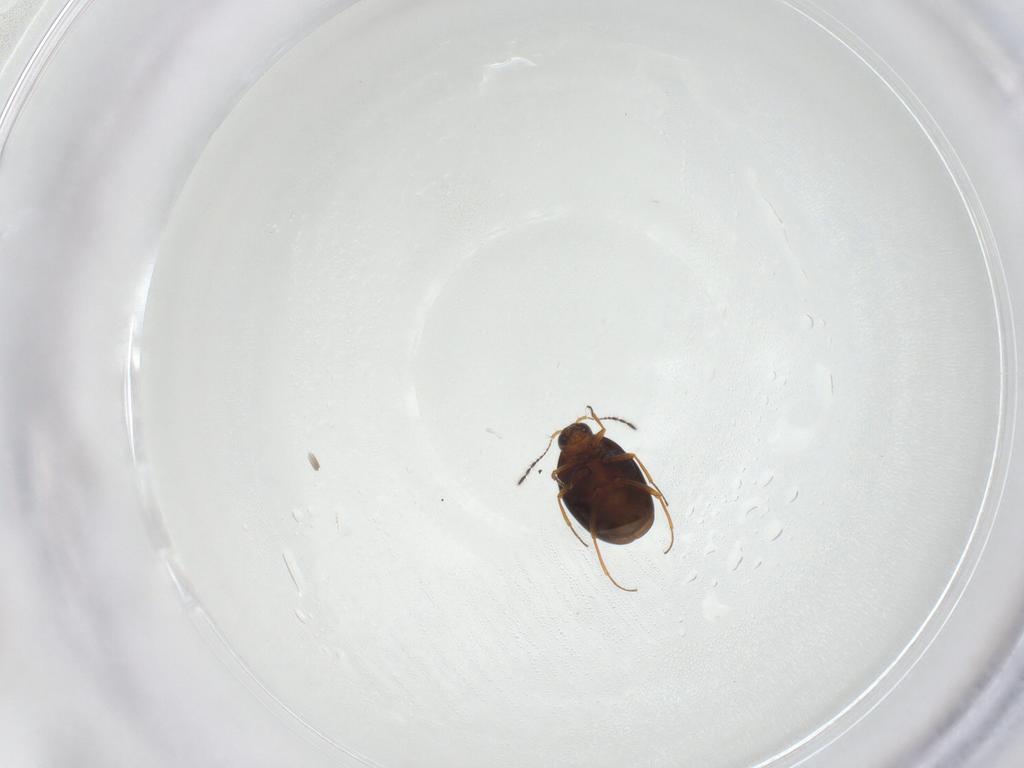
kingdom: Animalia
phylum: Arthropoda
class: Insecta
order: Coleoptera
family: Staphylinidae
